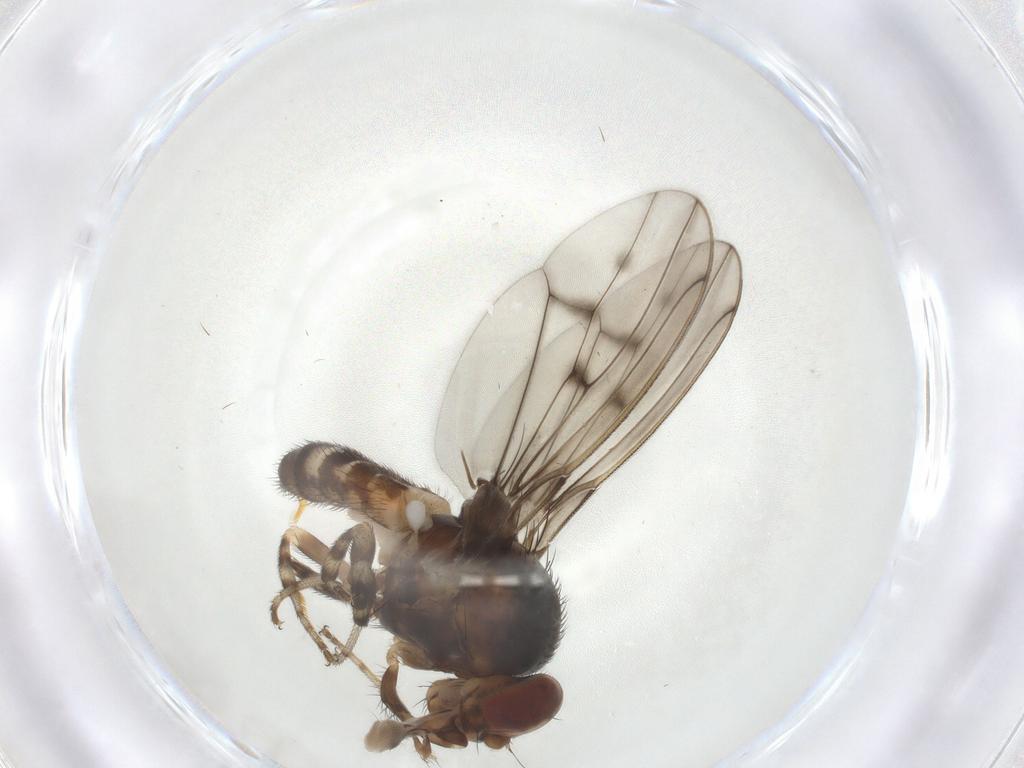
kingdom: Animalia
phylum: Arthropoda
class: Insecta
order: Diptera
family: Drosophilidae
